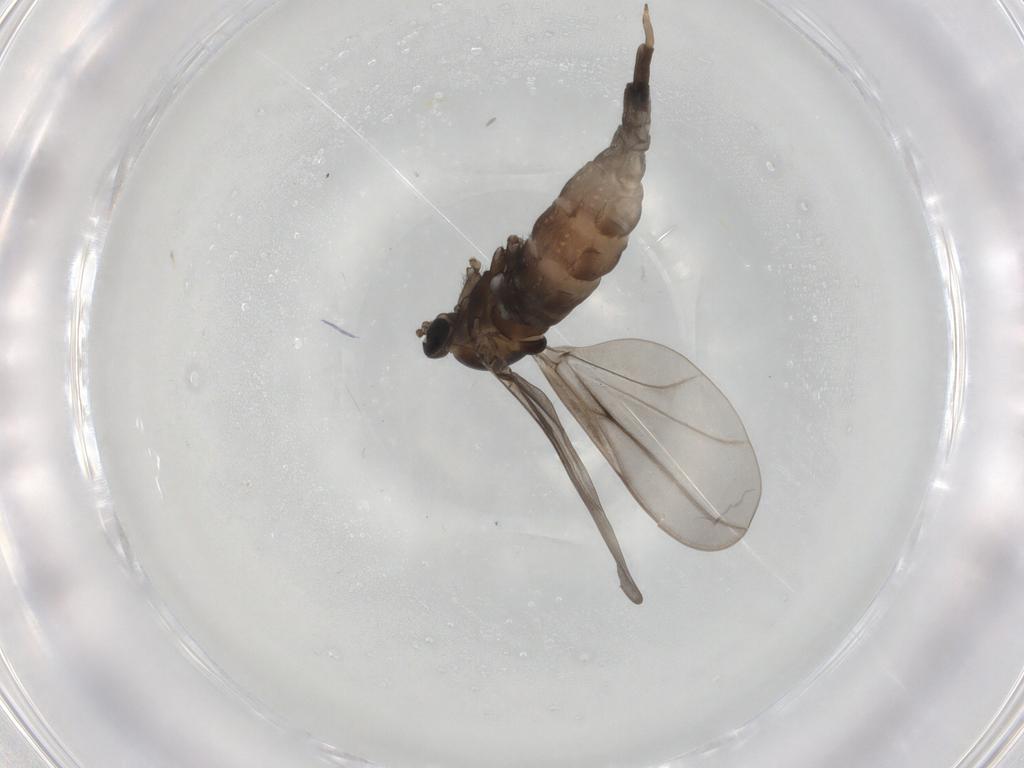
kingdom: Animalia
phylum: Arthropoda
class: Insecta
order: Diptera
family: Cecidomyiidae
